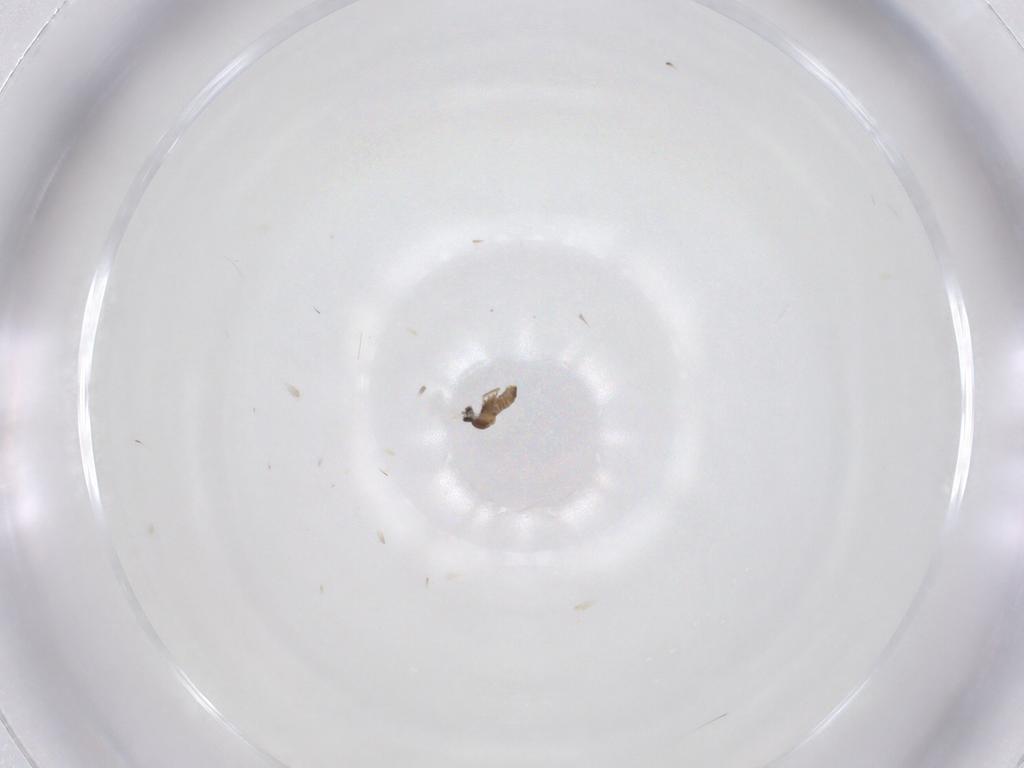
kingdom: Animalia
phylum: Arthropoda
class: Insecta
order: Diptera
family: Cecidomyiidae
